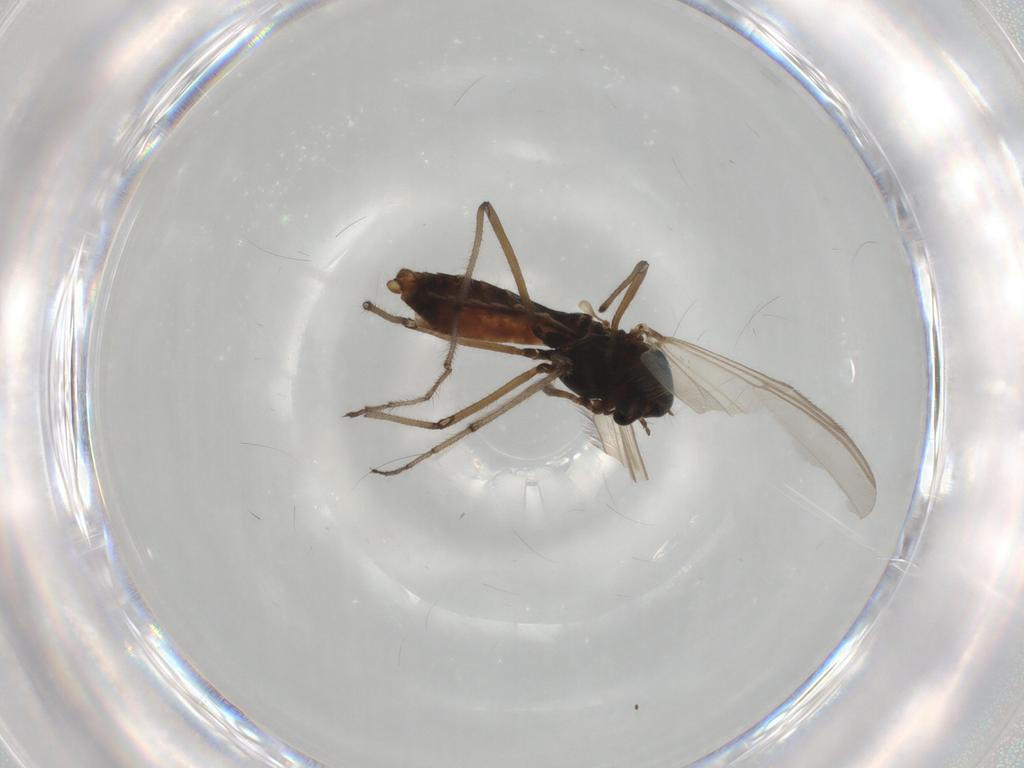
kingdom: Animalia
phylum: Arthropoda
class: Insecta
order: Diptera
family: Chironomidae
